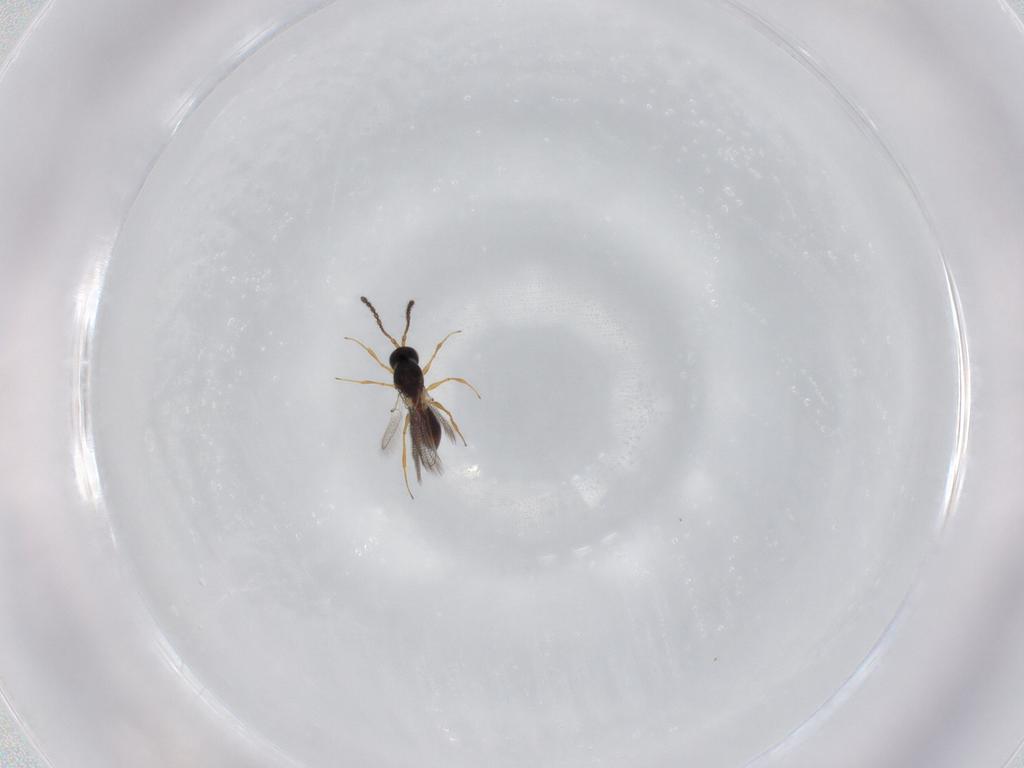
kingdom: Animalia
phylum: Arthropoda
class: Insecta
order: Hymenoptera
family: Figitidae
